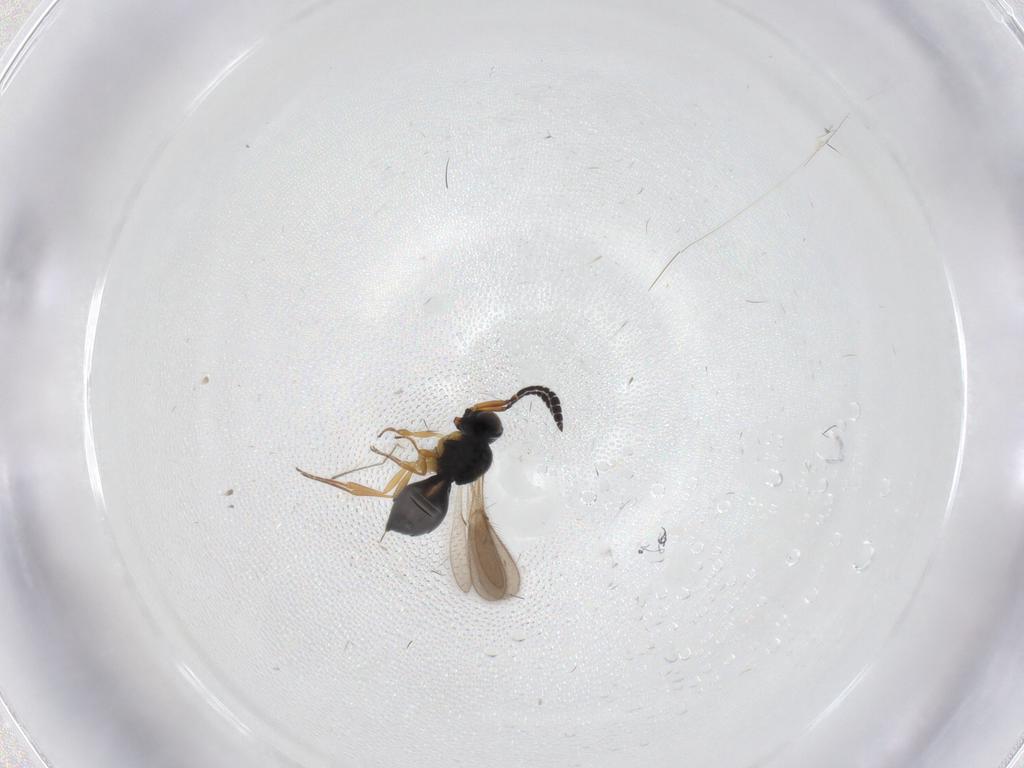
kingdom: Animalia
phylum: Arthropoda
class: Insecta
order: Hymenoptera
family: Scelionidae
